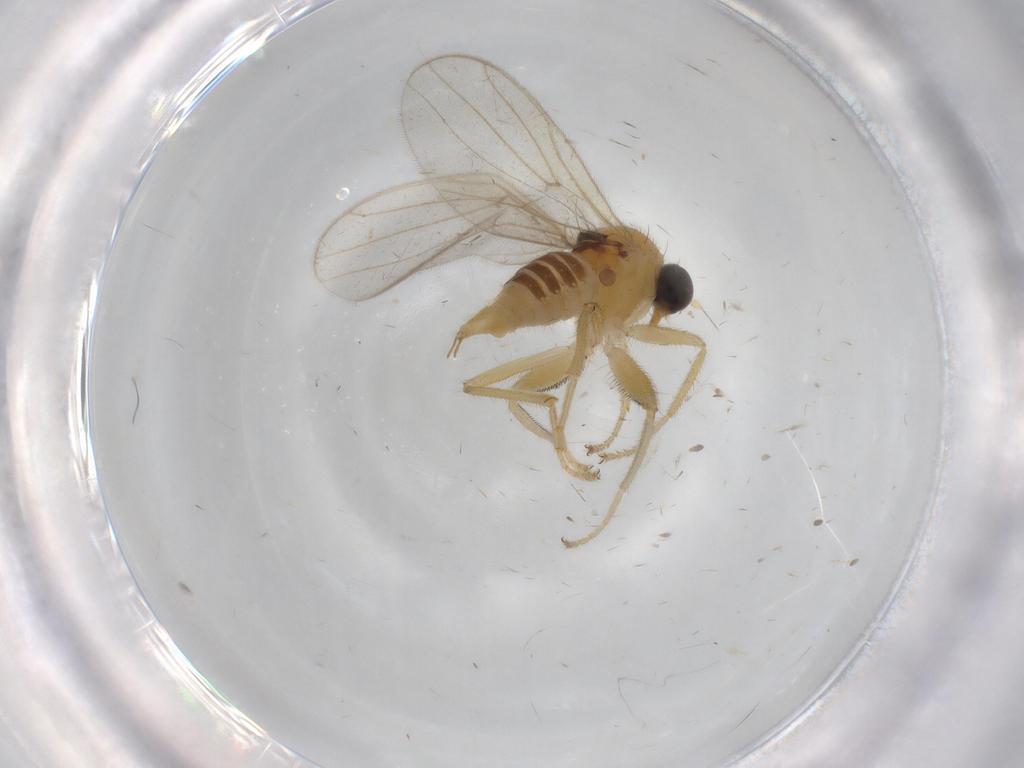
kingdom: Animalia
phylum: Arthropoda
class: Insecta
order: Diptera
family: Hybotidae
